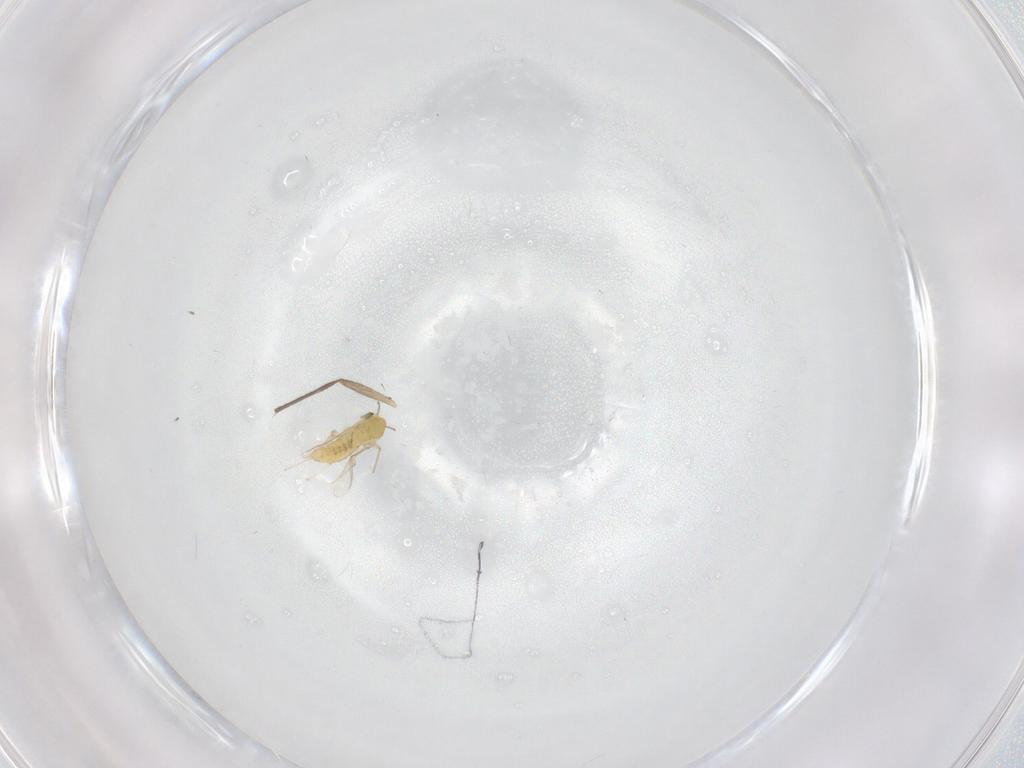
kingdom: Animalia
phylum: Arthropoda
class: Insecta
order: Diptera
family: Chironomidae
